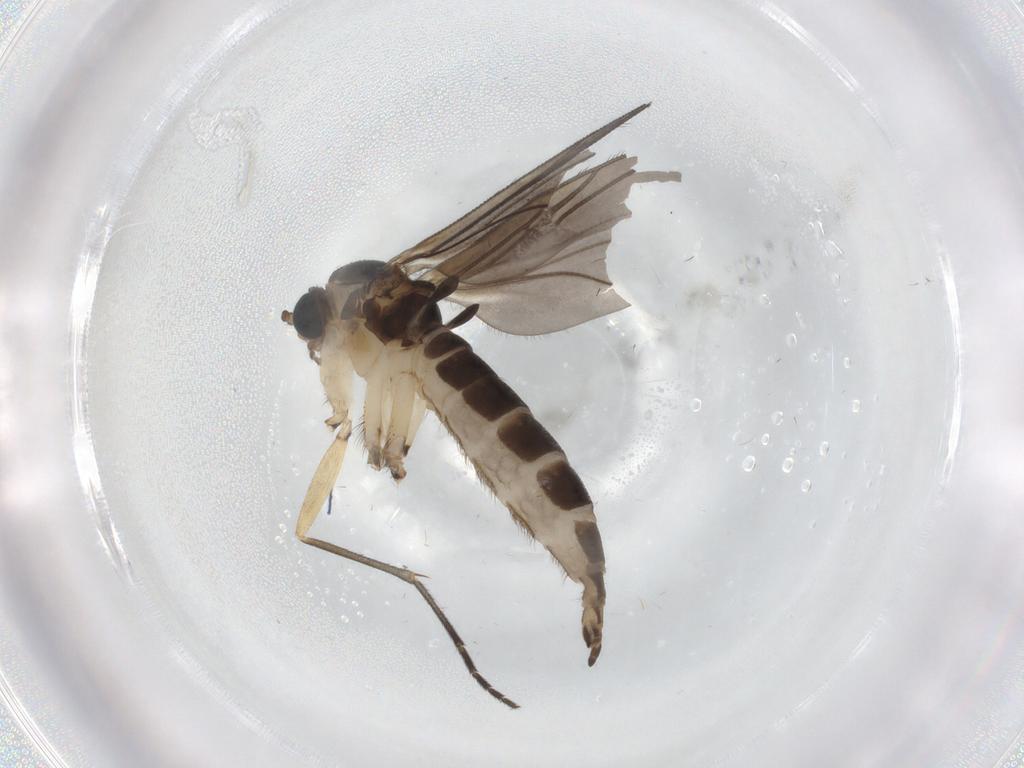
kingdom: Animalia
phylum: Arthropoda
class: Insecta
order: Diptera
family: Sciaridae
